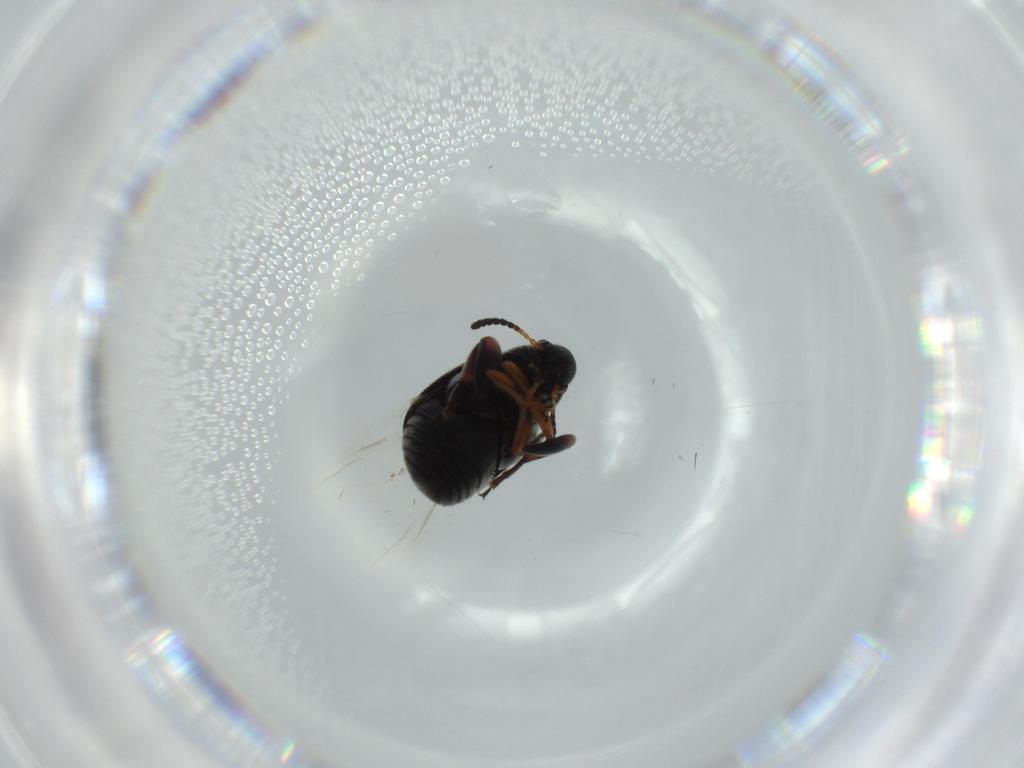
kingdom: Animalia
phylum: Arthropoda
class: Insecta
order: Coleoptera
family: Chrysomelidae
